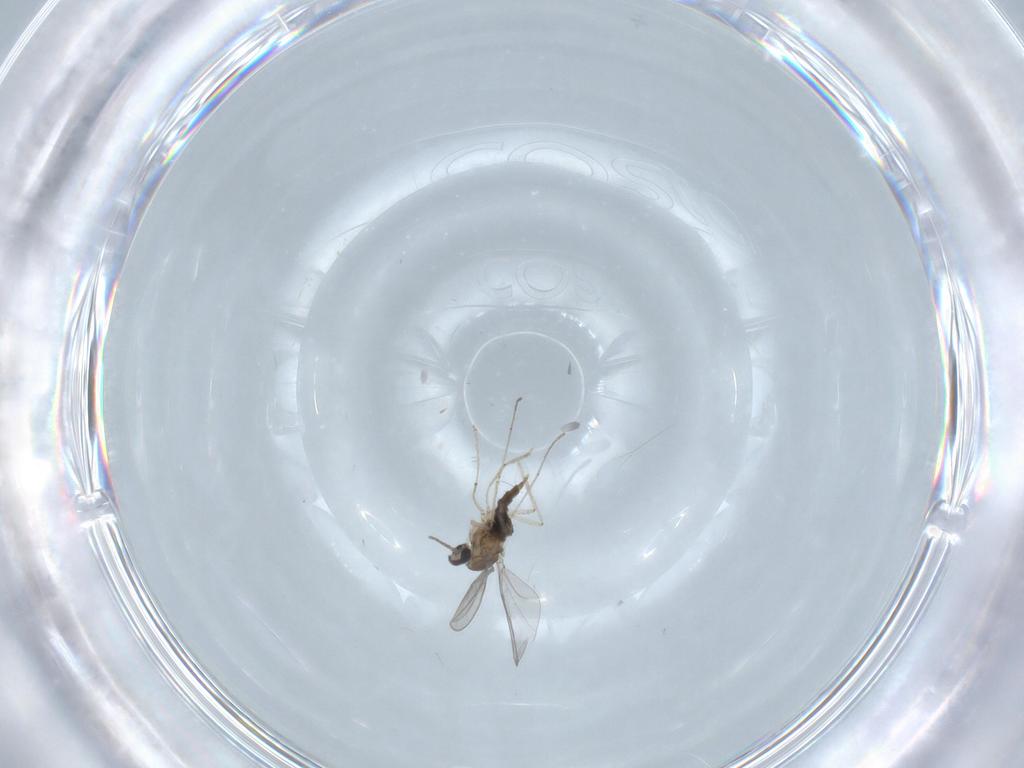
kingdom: Animalia
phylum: Arthropoda
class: Insecta
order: Diptera
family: Cecidomyiidae
